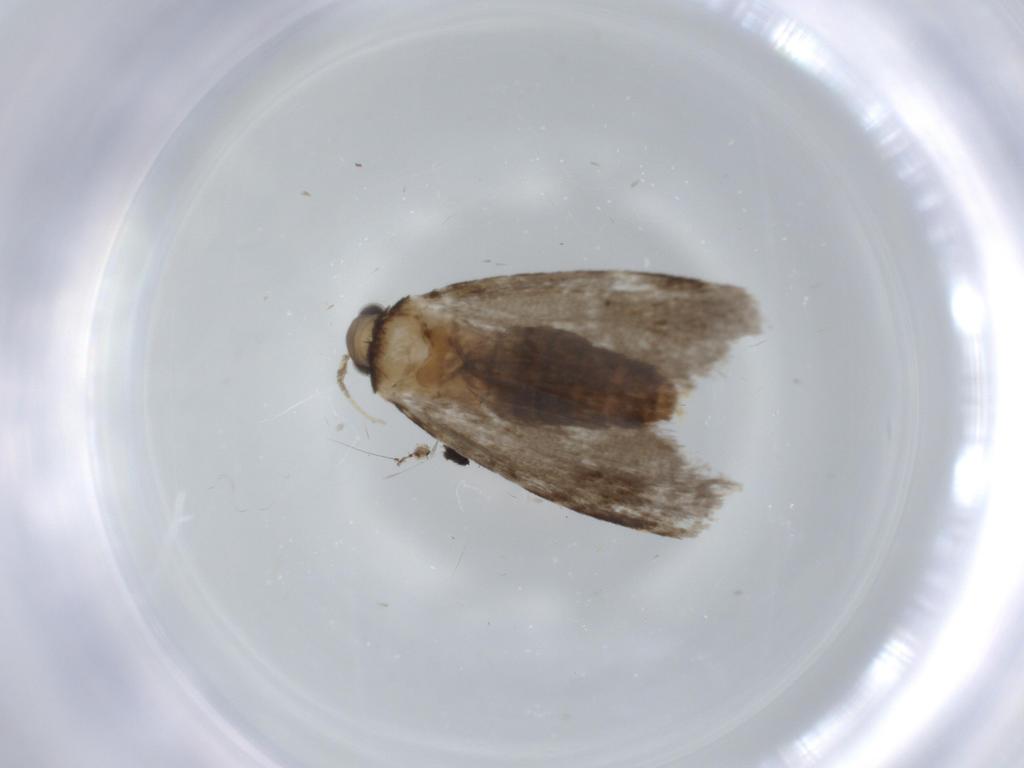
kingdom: Animalia
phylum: Arthropoda
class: Insecta
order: Lepidoptera
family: Tineidae
